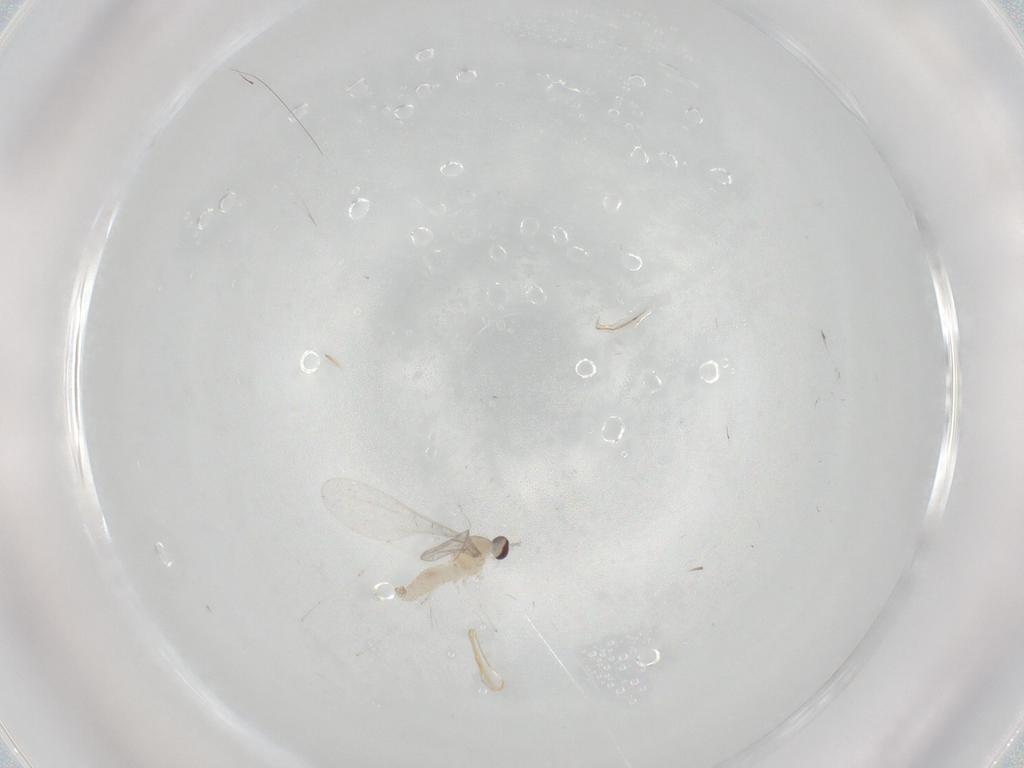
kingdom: Animalia
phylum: Arthropoda
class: Insecta
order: Diptera
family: Cecidomyiidae
